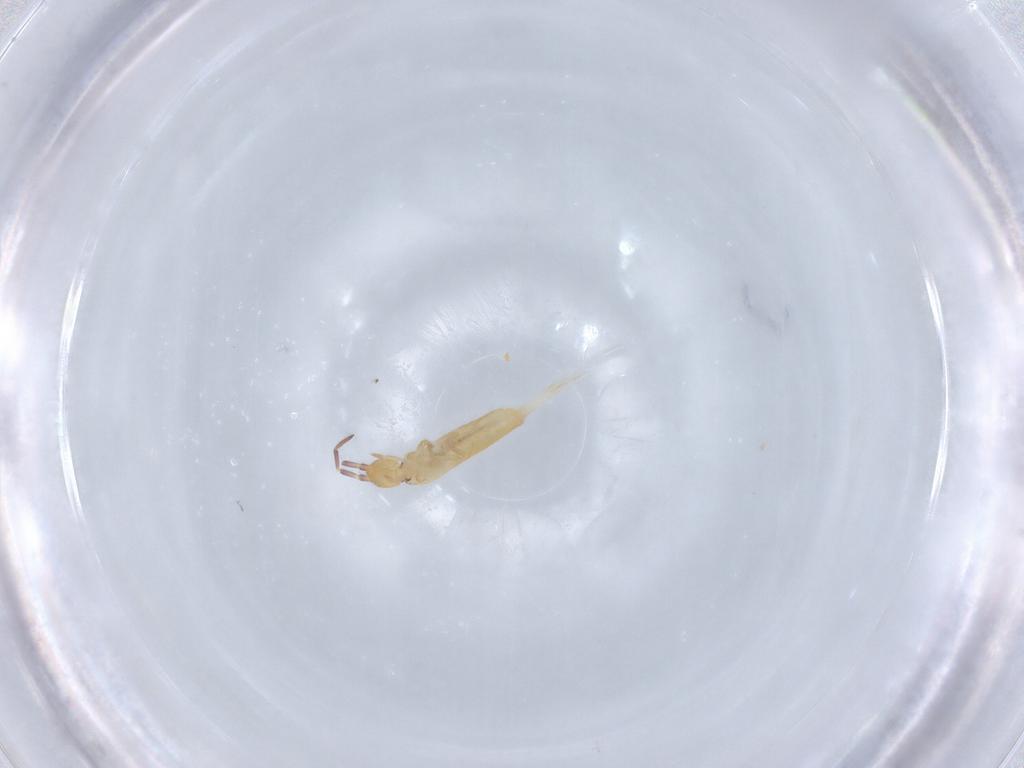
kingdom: Animalia
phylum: Arthropoda
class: Collembola
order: Entomobryomorpha
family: Entomobryidae
